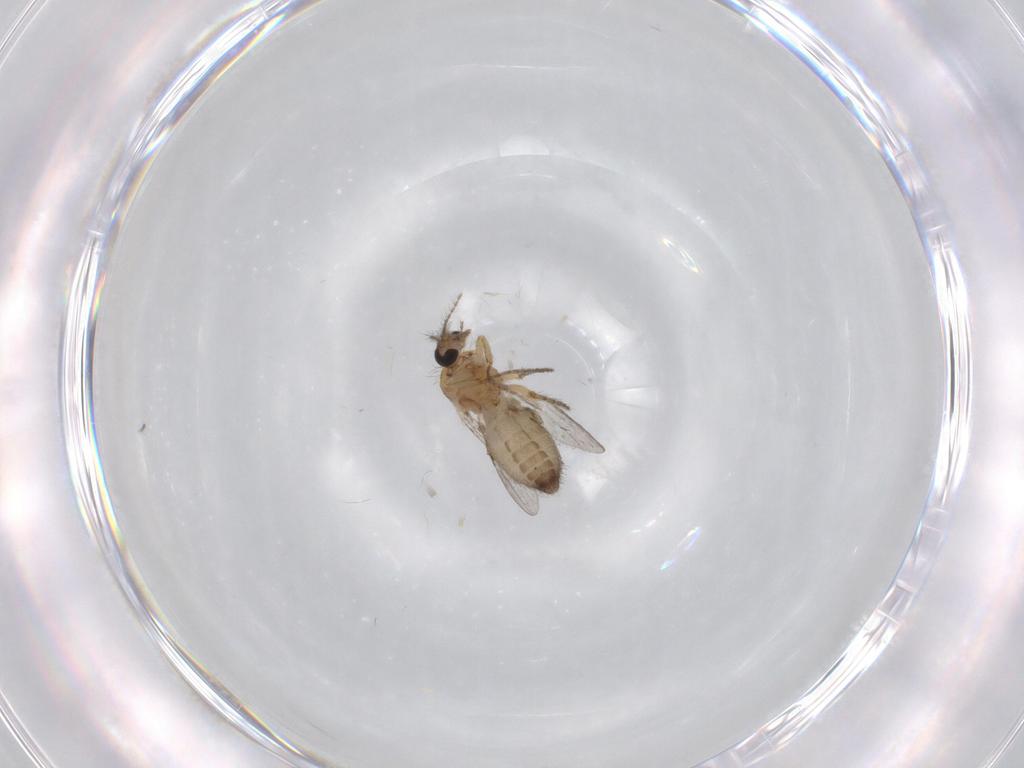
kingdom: Animalia
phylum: Arthropoda
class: Insecta
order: Diptera
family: Ceratopogonidae
